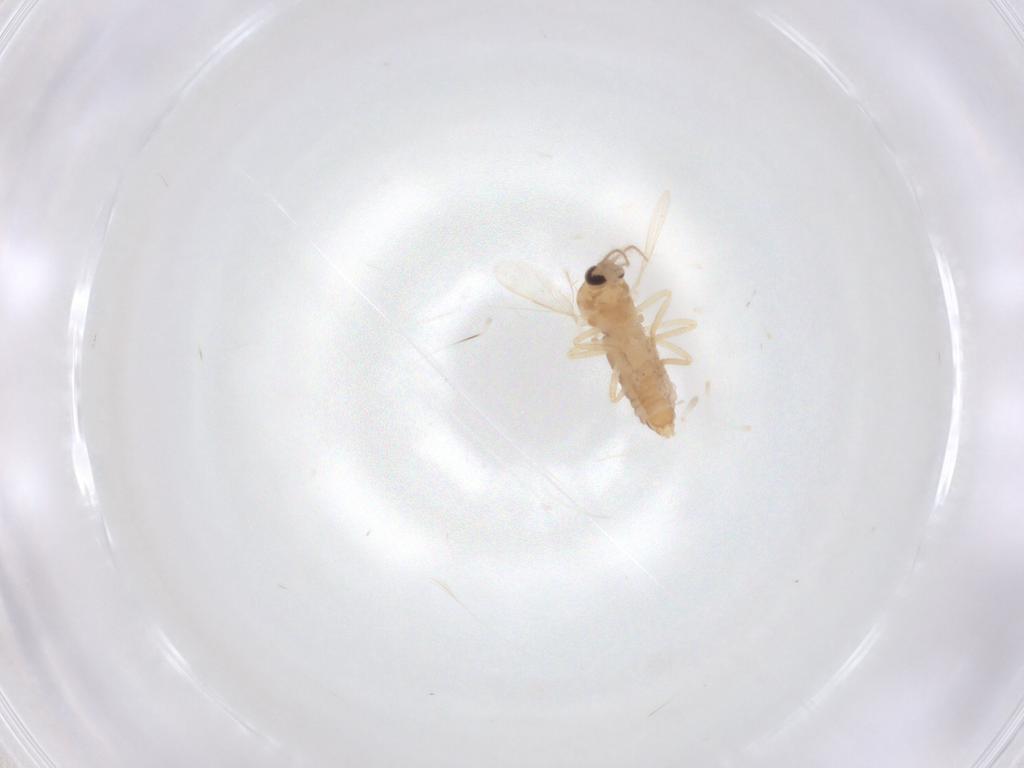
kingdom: Animalia
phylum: Arthropoda
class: Insecta
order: Diptera
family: Ceratopogonidae
